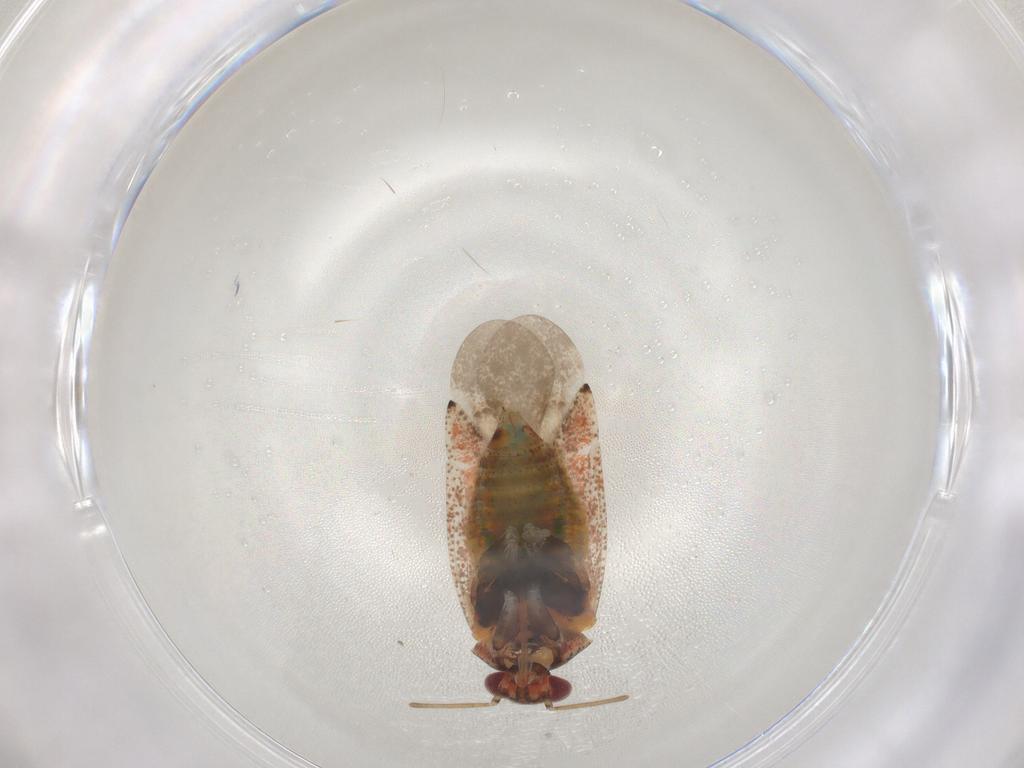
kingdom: Animalia
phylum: Arthropoda
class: Insecta
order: Hemiptera
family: Miridae
